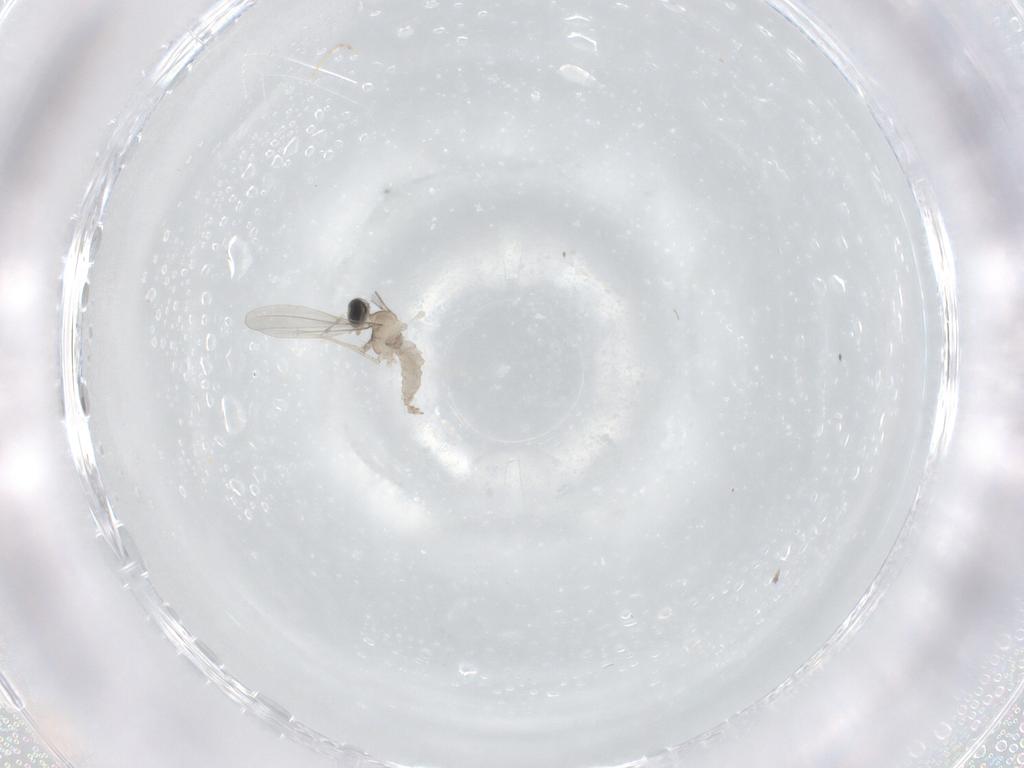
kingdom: Animalia
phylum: Arthropoda
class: Insecta
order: Diptera
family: Cecidomyiidae
